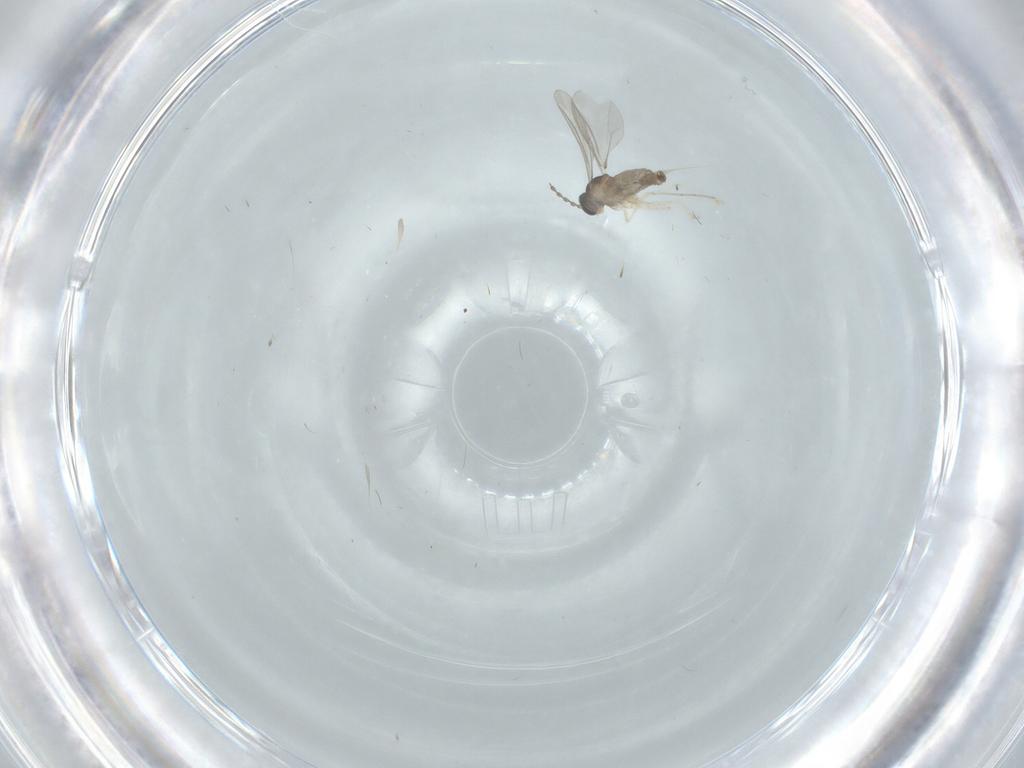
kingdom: Animalia
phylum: Arthropoda
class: Insecta
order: Diptera
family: Cecidomyiidae
